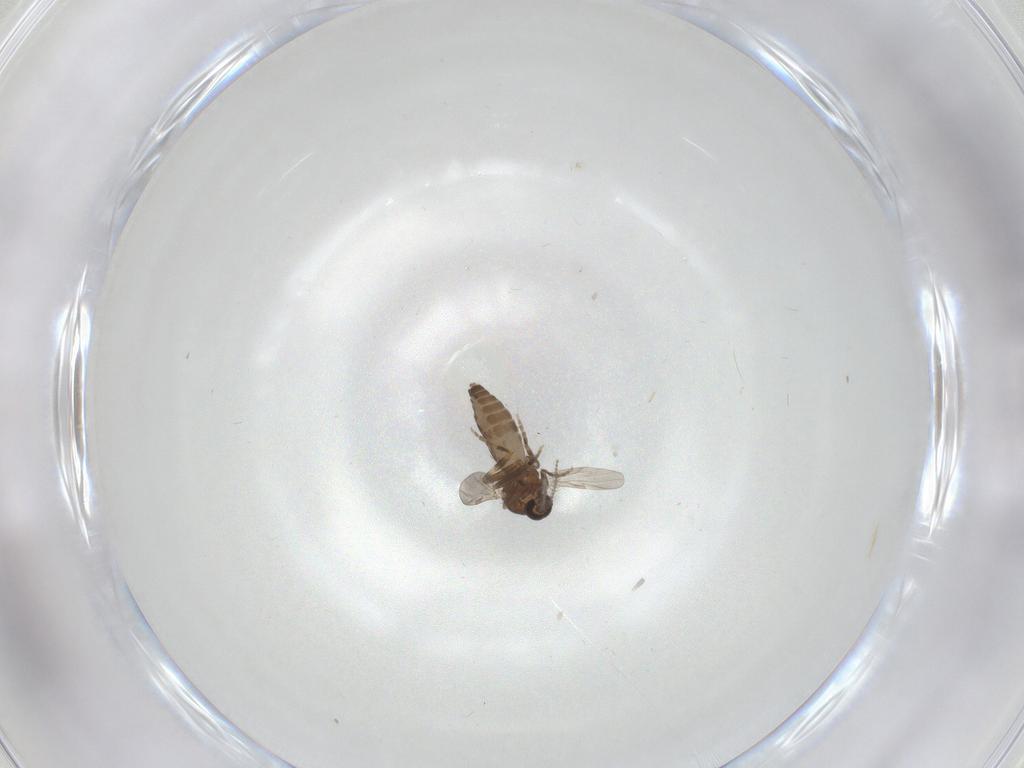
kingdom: Animalia
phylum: Arthropoda
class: Insecta
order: Diptera
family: Ceratopogonidae
